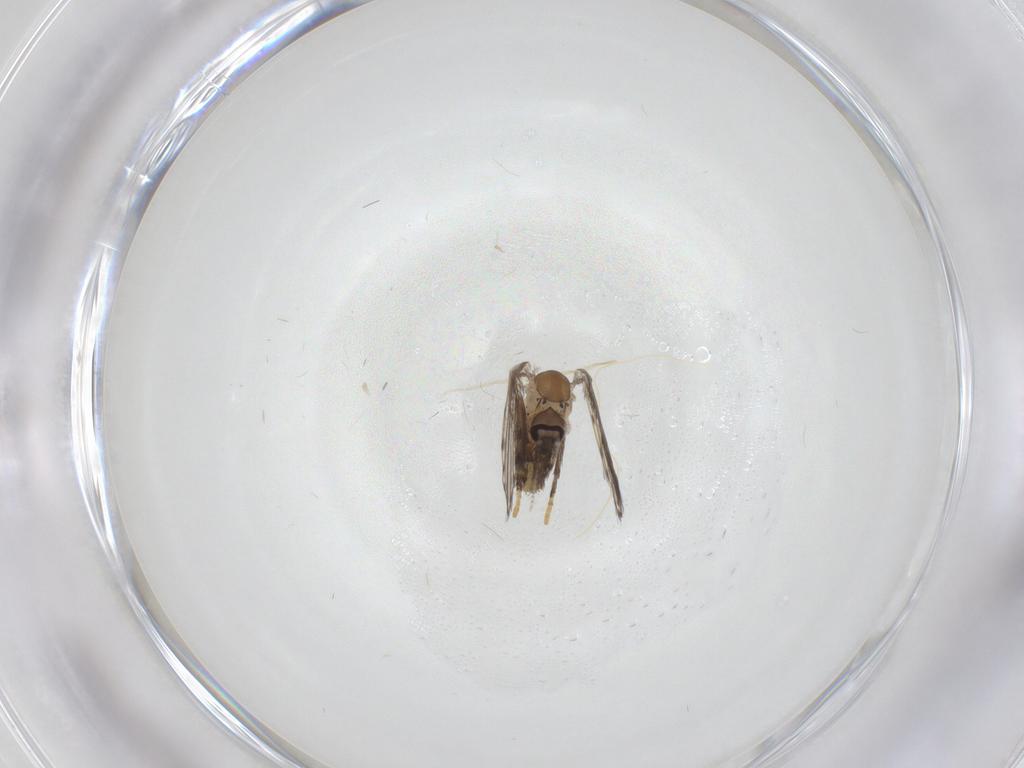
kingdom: Animalia
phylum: Arthropoda
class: Insecta
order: Diptera
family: Psychodidae
